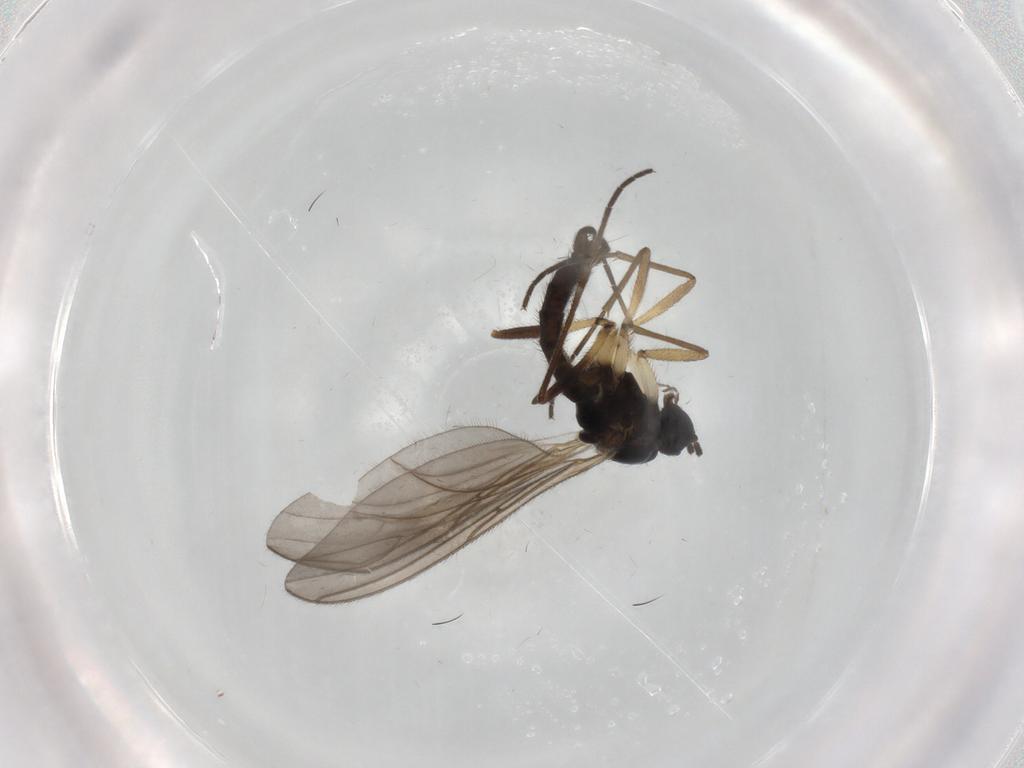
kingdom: Animalia
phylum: Arthropoda
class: Insecta
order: Diptera
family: Sciaridae
